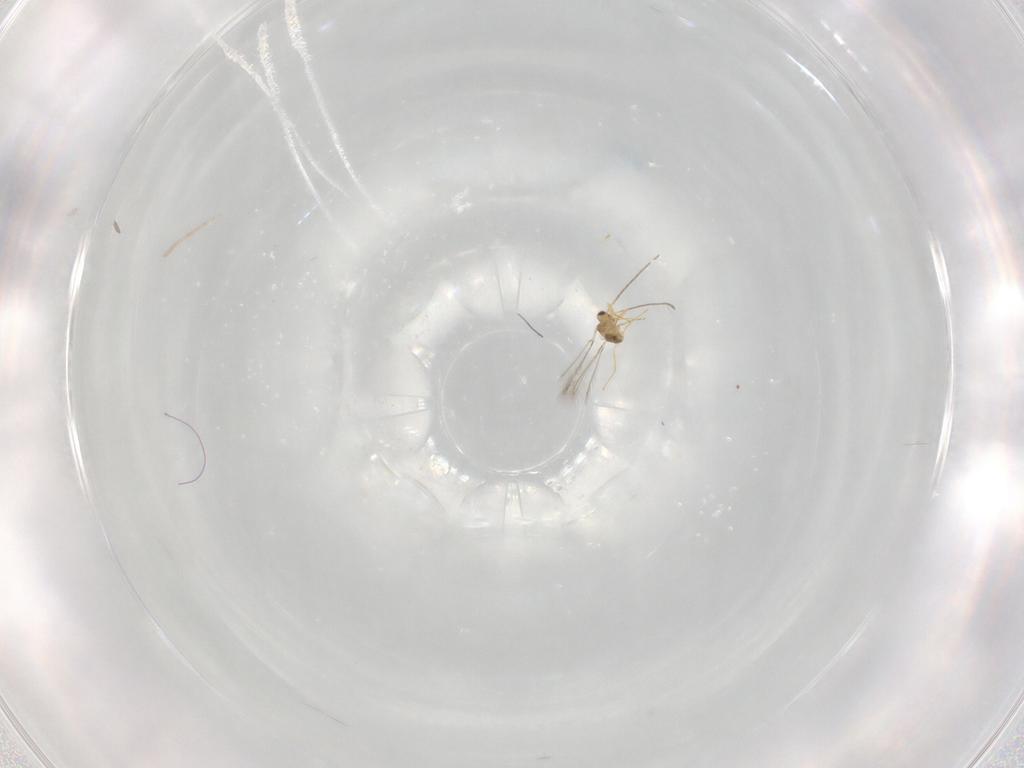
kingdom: Animalia
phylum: Arthropoda
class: Insecta
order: Hymenoptera
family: Mymaridae
